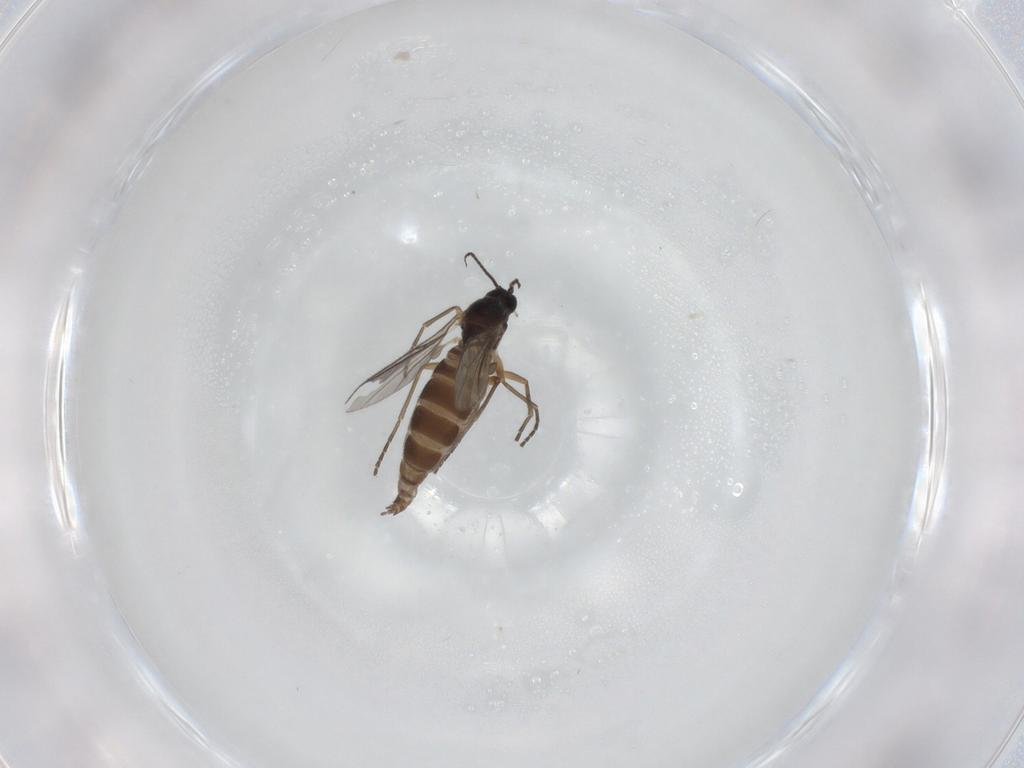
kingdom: Animalia
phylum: Arthropoda
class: Insecta
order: Diptera
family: Sciaridae
